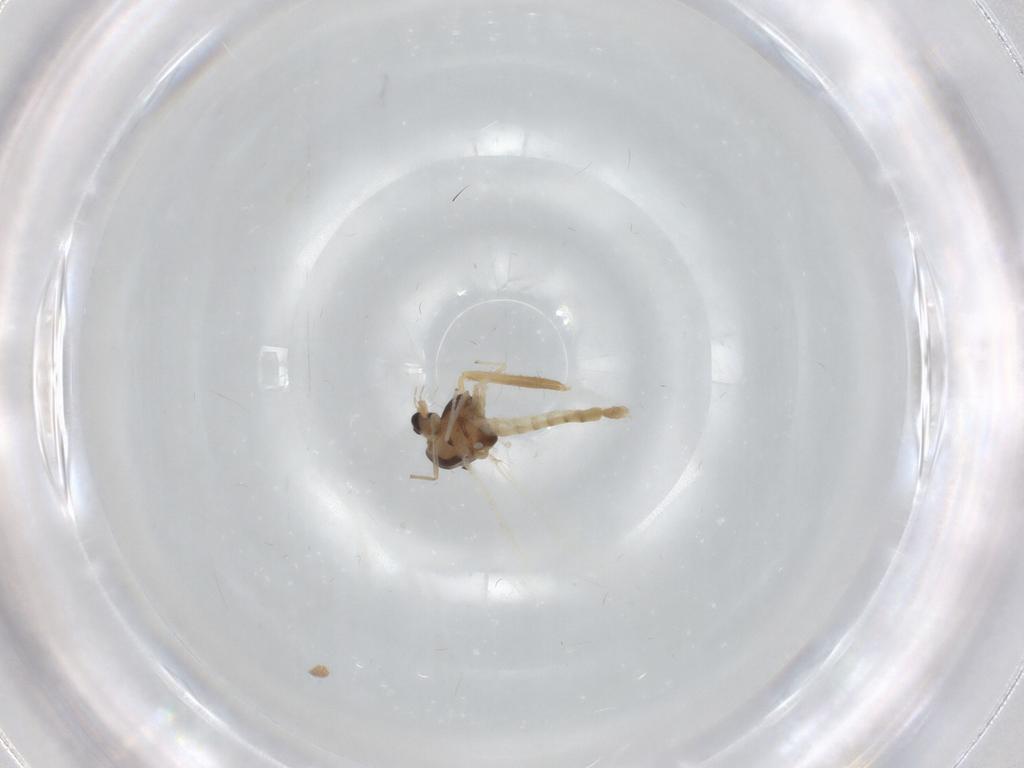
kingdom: Animalia
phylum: Arthropoda
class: Insecta
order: Diptera
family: Chironomidae
